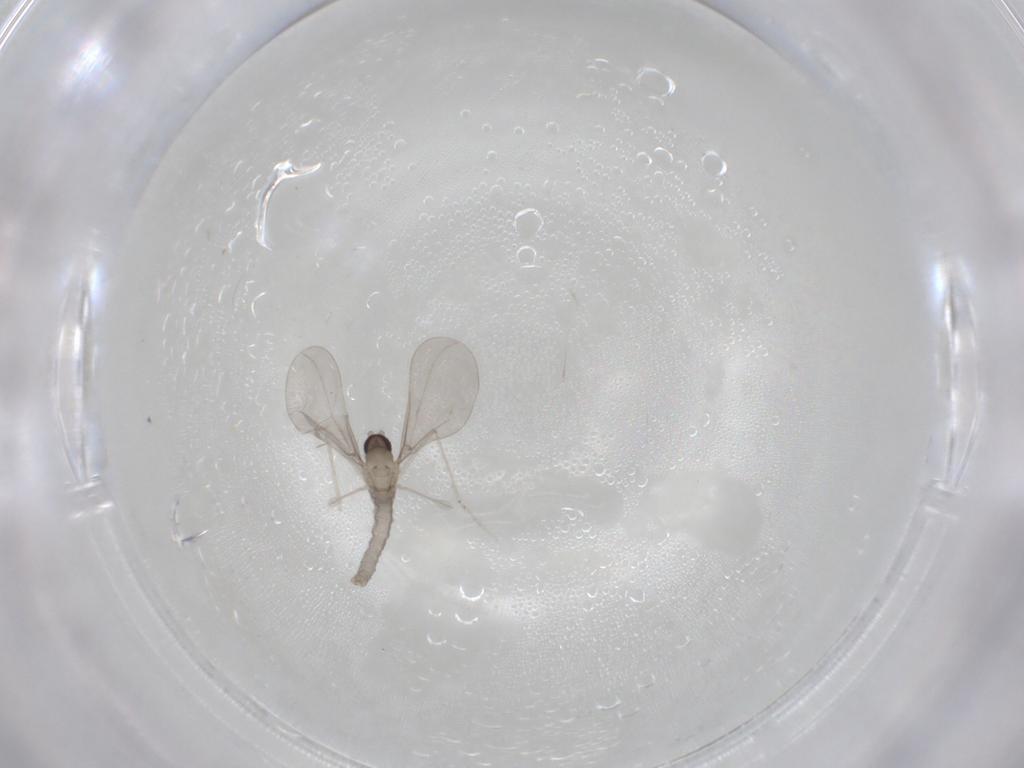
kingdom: Animalia
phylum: Arthropoda
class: Insecta
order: Diptera
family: Cecidomyiidae
